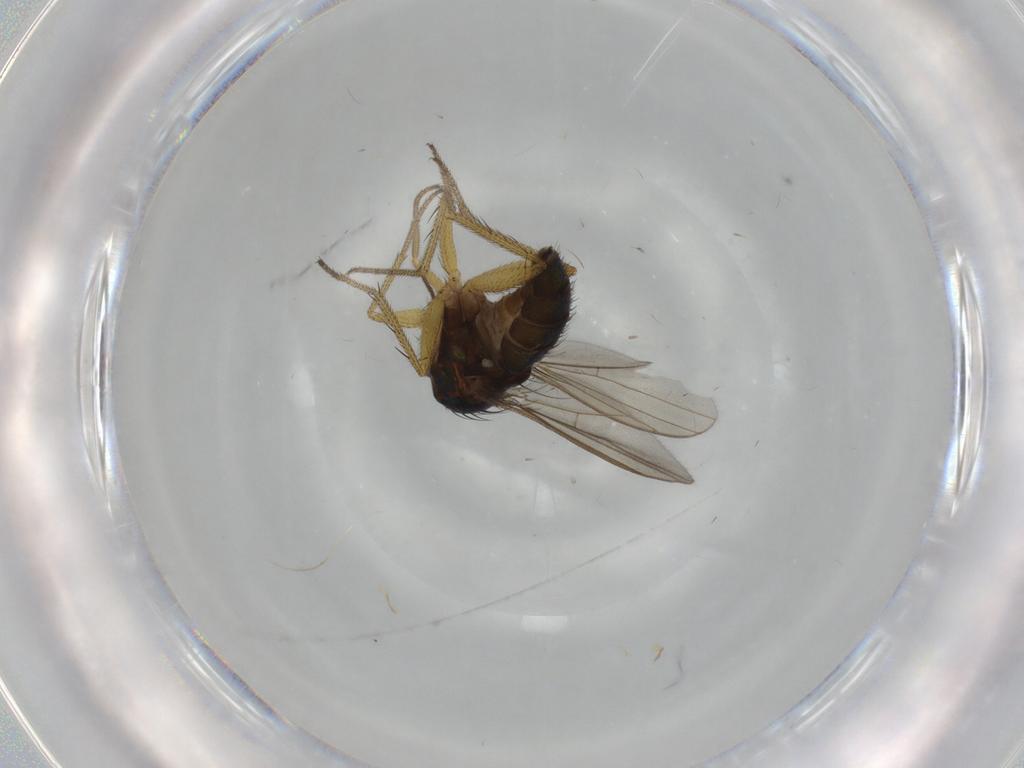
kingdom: Animalia
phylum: Arthropoda
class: Insecta
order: Diptera
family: Dolichopodidae
